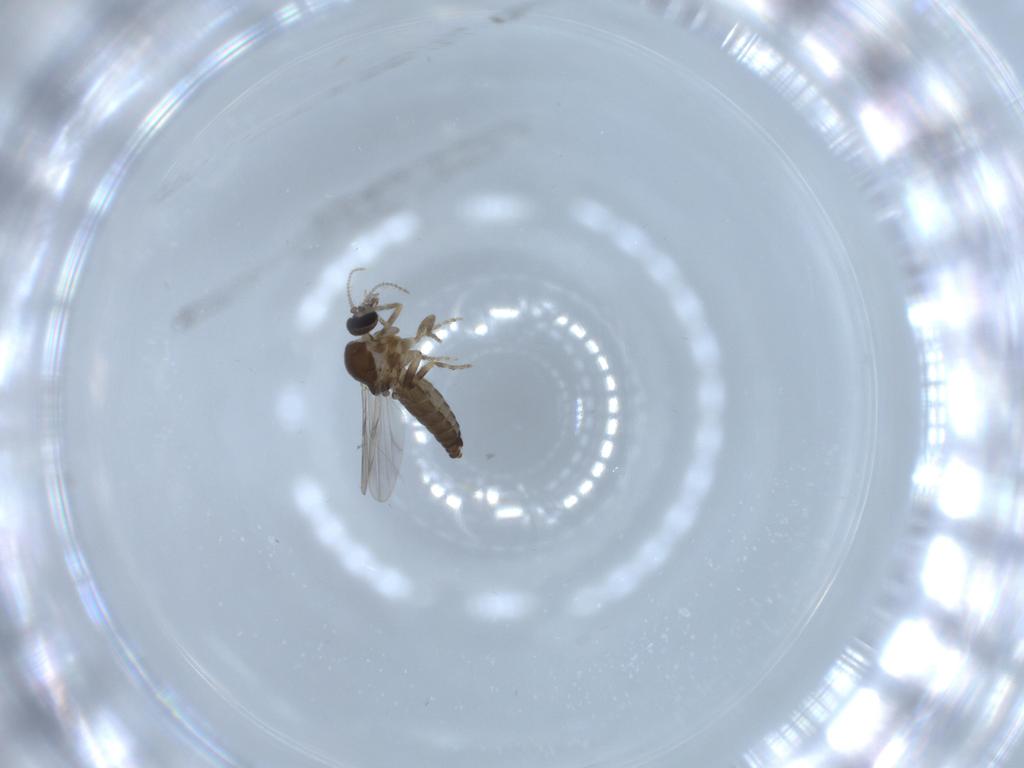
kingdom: Animalia
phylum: Arthropoda
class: Insecta
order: Diptera
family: Ceratopogonidae
